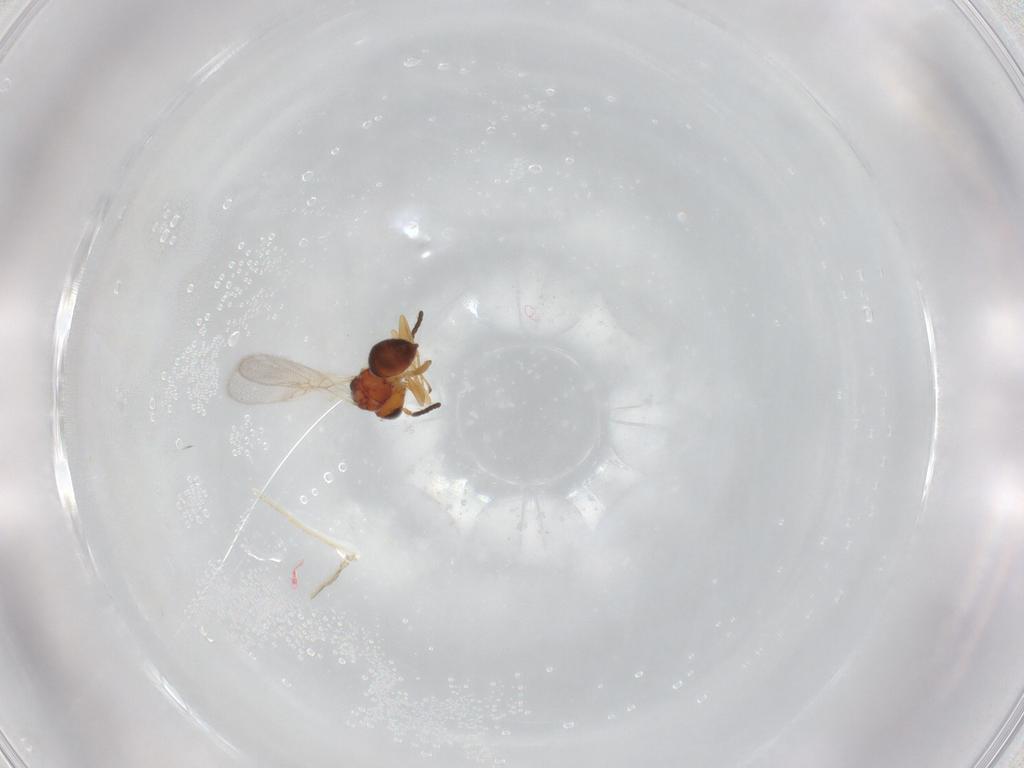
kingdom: Animalia
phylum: Arthropoda
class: Insecta
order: Hymenoptera
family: Figitidae
